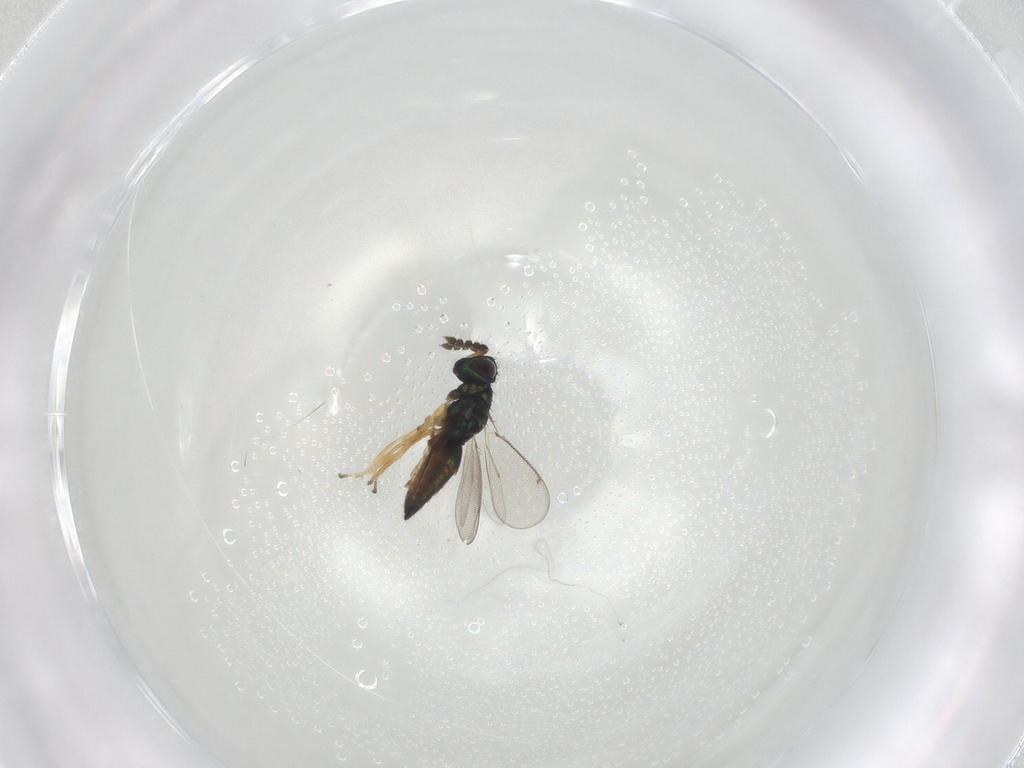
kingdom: Animalia
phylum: Arthropoda
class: Insecta
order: Hymenoptera
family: Eulophidae
